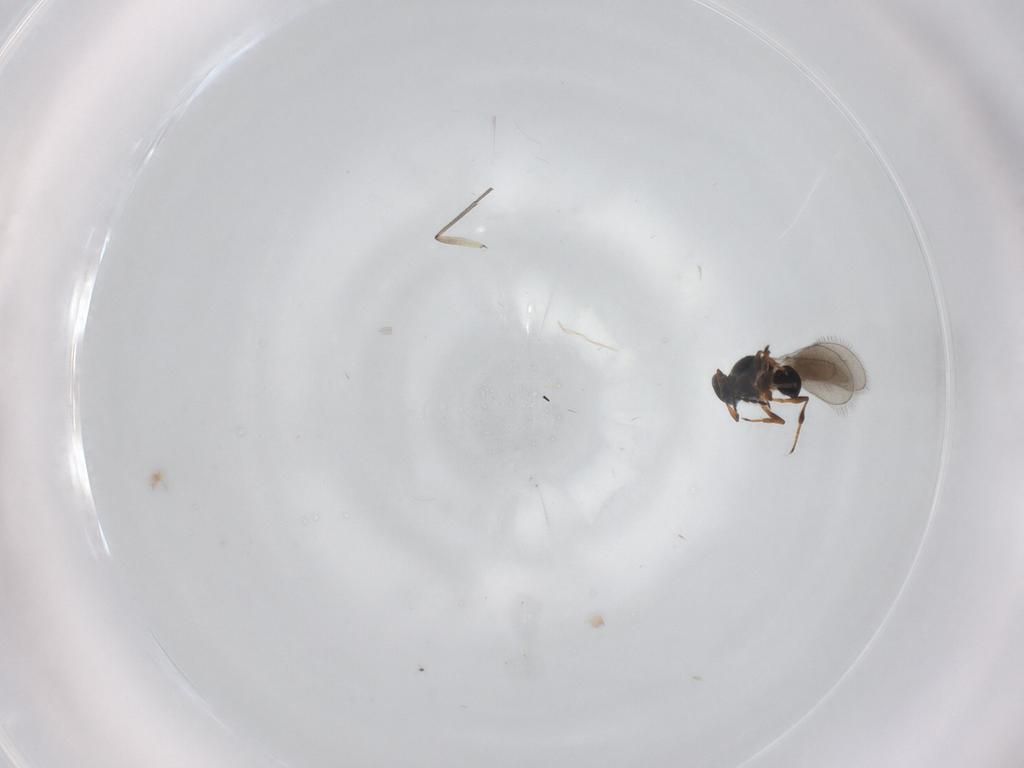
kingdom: Animalia
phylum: Arthropoda
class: Insecta
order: Hymenoptera
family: Platygastridae
